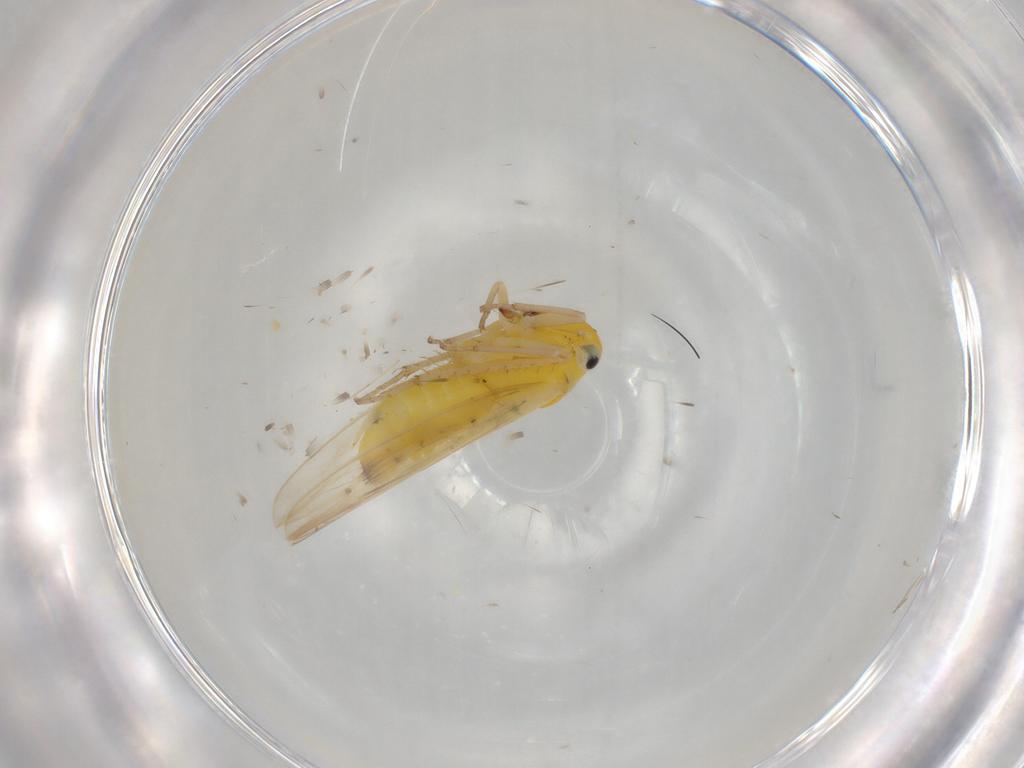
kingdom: Animalia
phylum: Arthropoda
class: Insecta
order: Hemiptera
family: Cicadellidae
